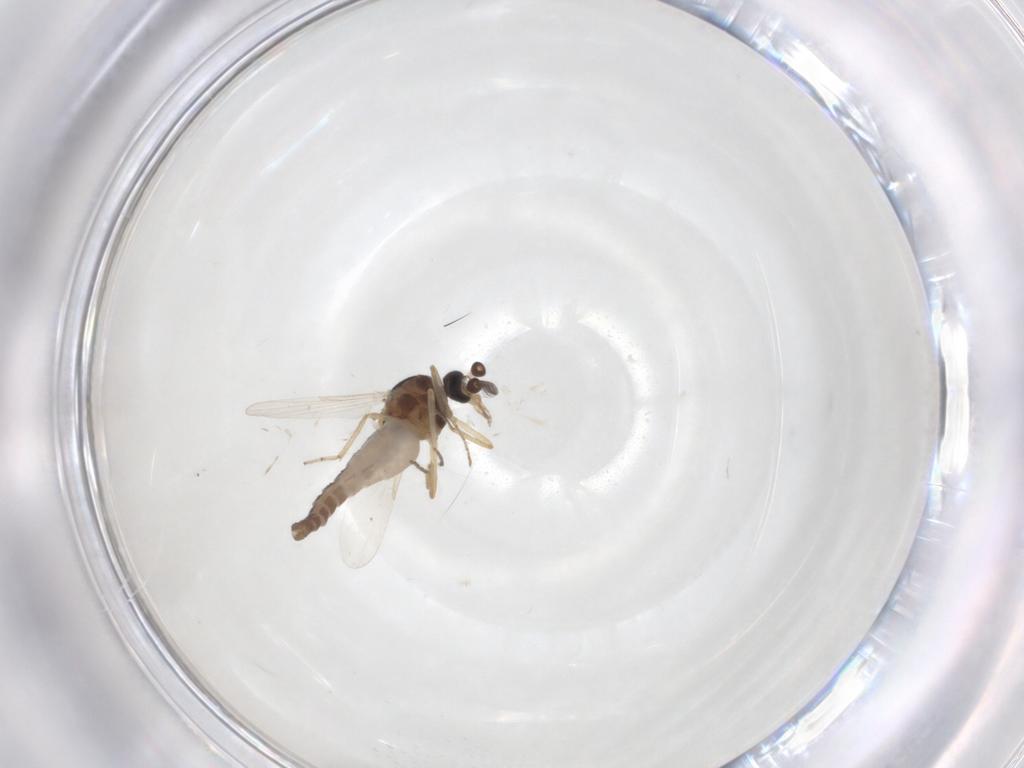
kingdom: Animalia
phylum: Arthropoda
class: Insecta
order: Diptera
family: Ceratopogonidae
